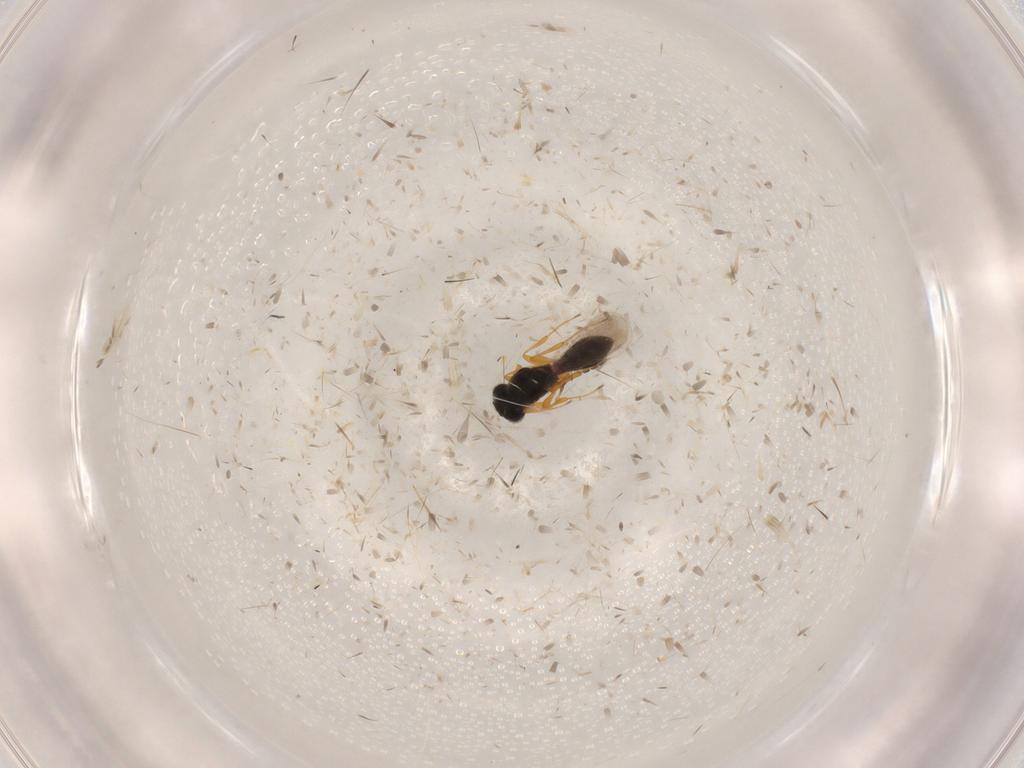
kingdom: Animalia
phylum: Arthropoda
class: Insecta
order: Hymenoptera
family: Platygastridae
